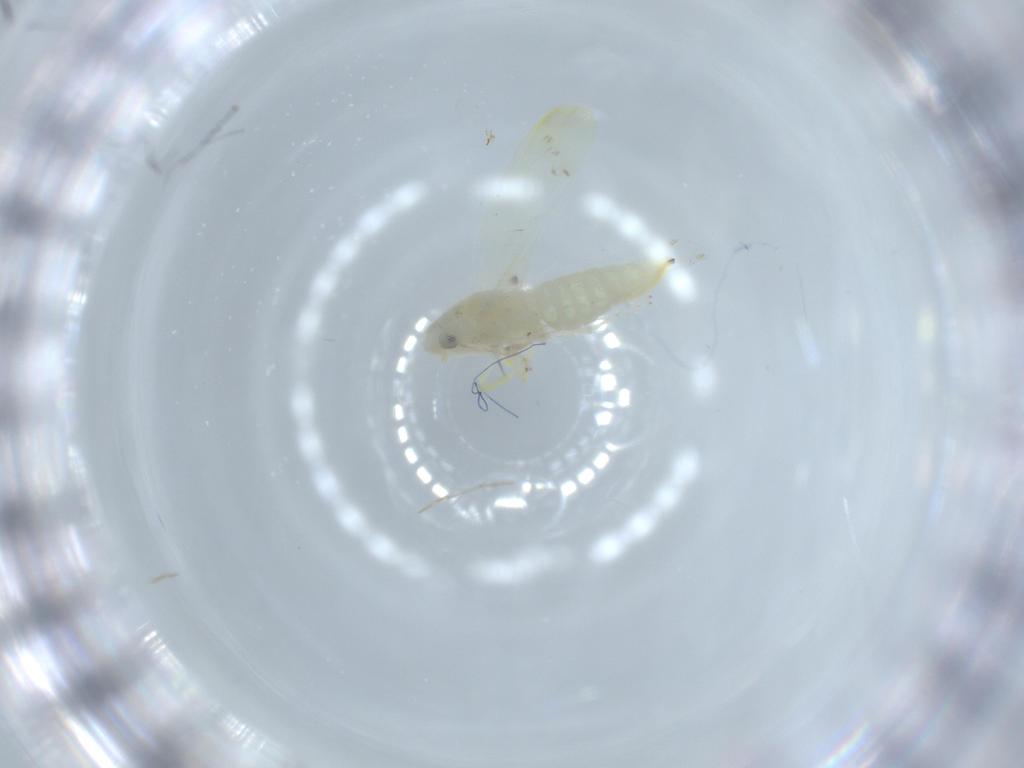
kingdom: Animalia
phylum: Arthropoda
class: Insecta
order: Hemiptera
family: Cicadellidae
